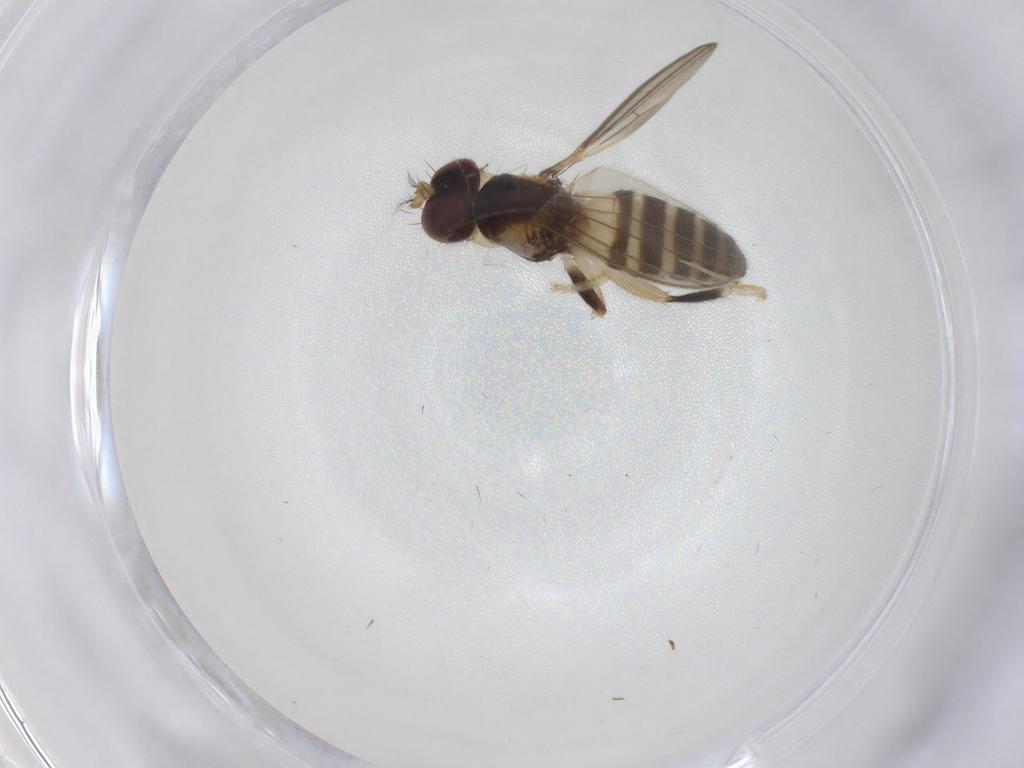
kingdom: Animalia
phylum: Arthropoda
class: Insecta
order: Diptera
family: Periscelididae
